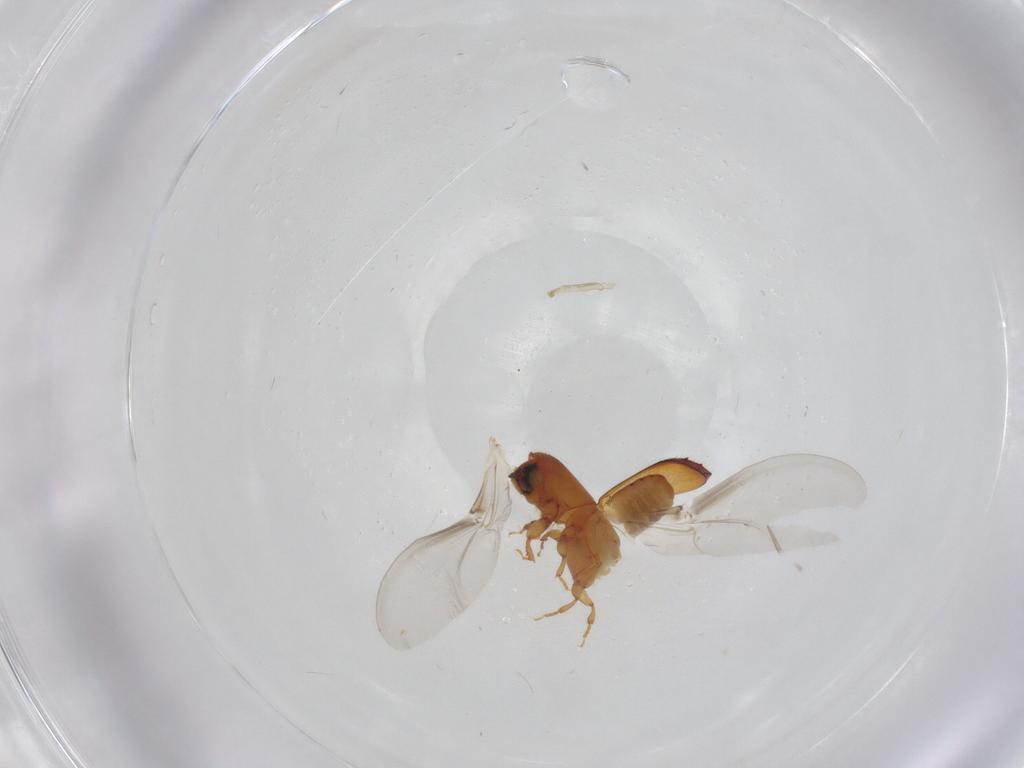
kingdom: Animalia
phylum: Arthropoda
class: Insecta
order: Coleoptera
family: Curculionidae
